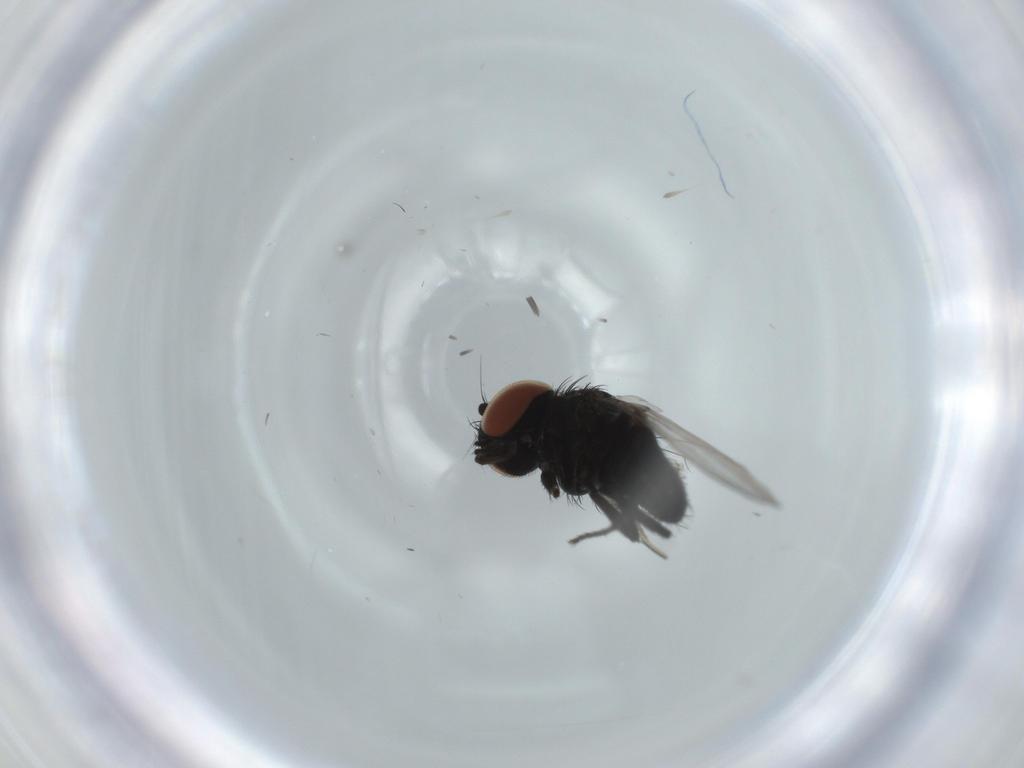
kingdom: Animalia
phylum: Arthropoda
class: Insecta
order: Diptera
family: Milichiidae
